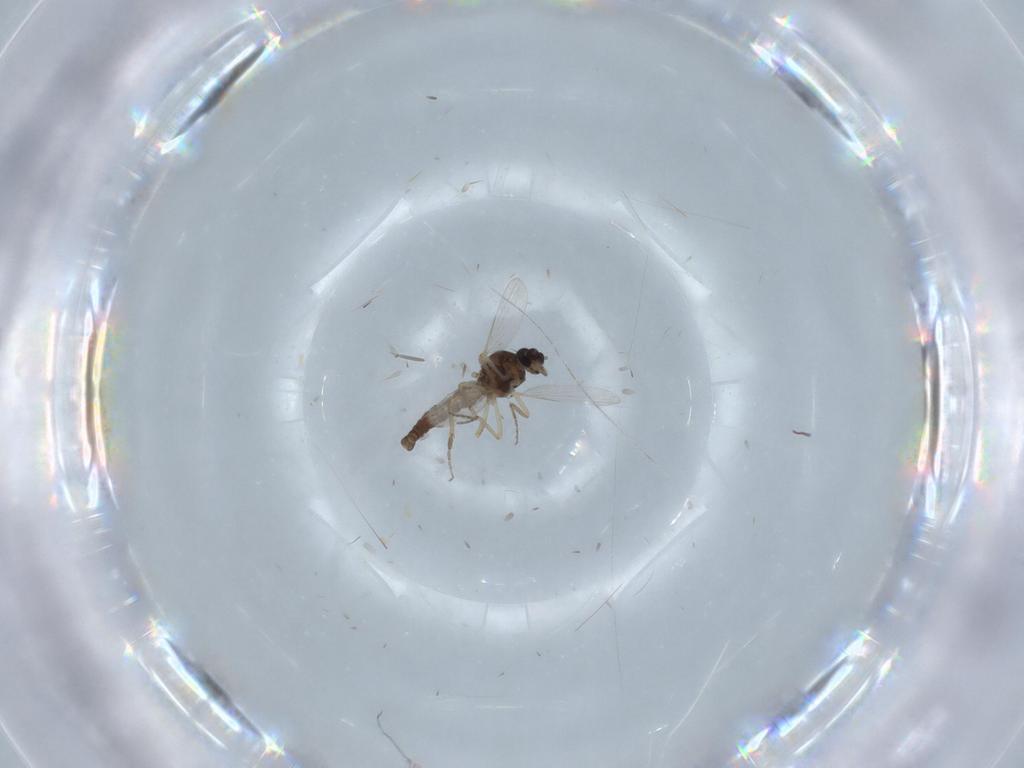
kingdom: Animalia
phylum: Arthropoda
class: Insecta
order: Diptera
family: Ceratopogonidae
